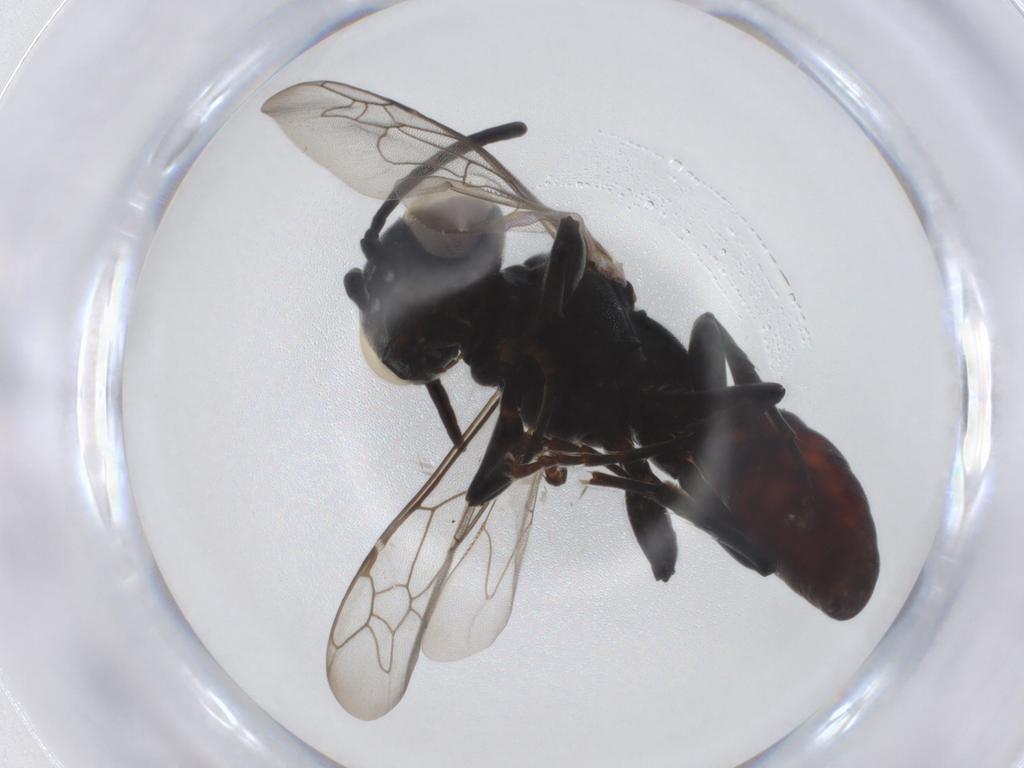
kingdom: Animalia
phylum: Arthropoda
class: Insecta
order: Hymenoptera
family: Crabronidae
